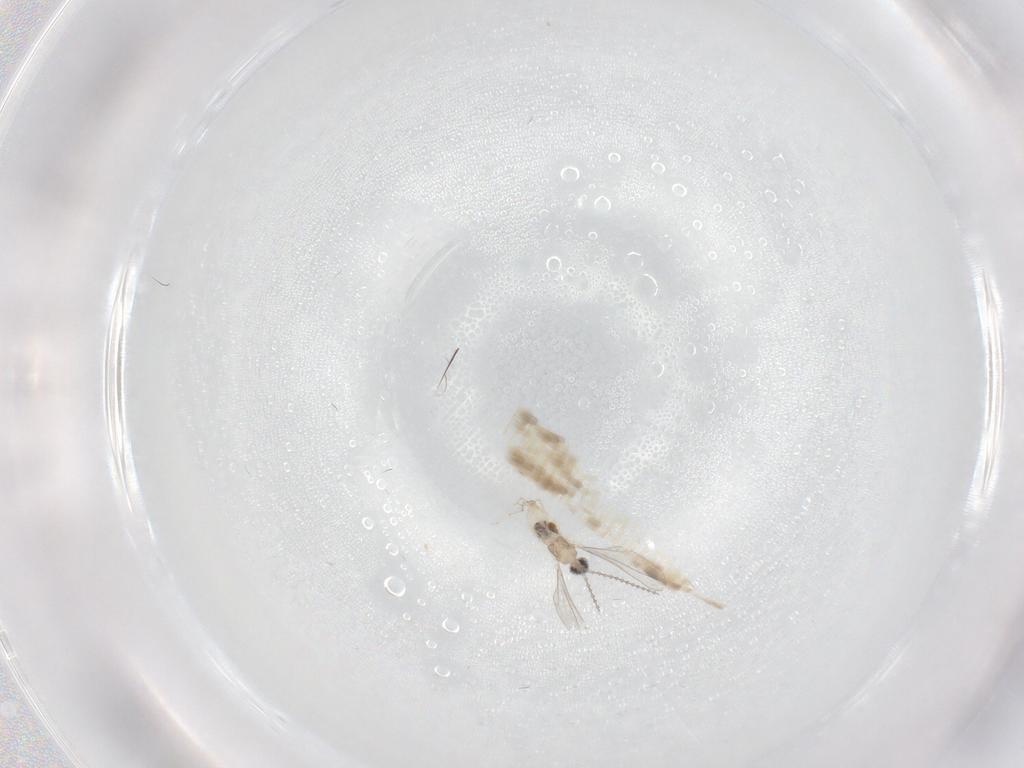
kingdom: Animalia
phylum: Arthropoda
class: Insecta
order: Diptera
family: Cecidomyiidae
